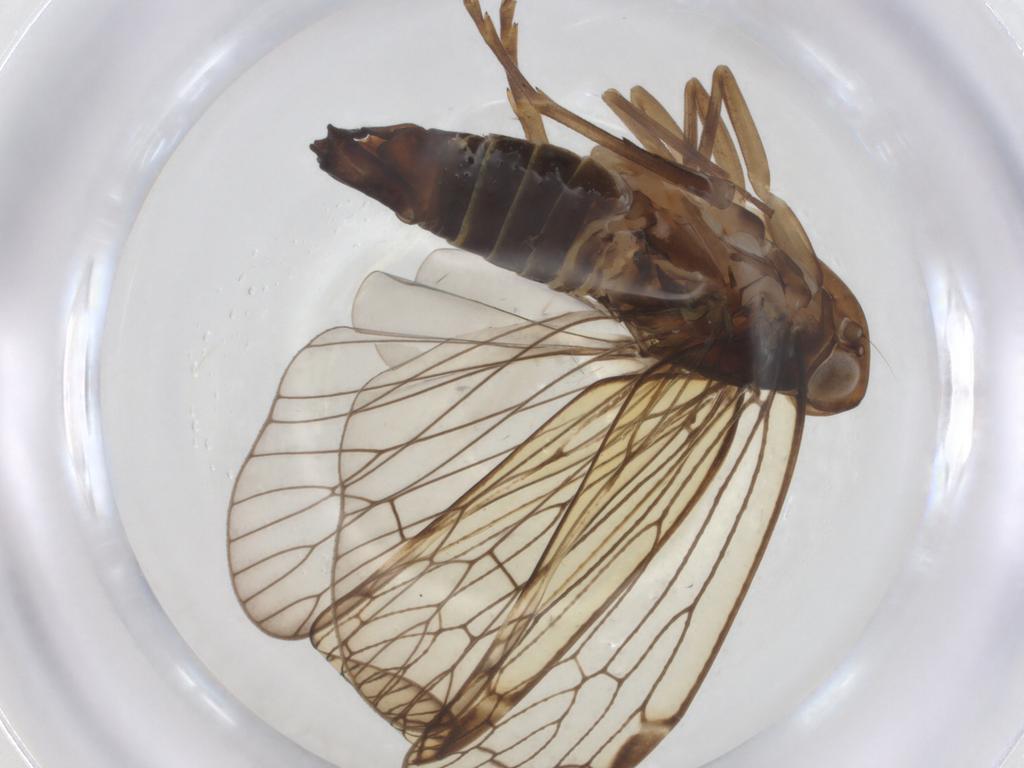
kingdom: Animalia
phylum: Arthropoda
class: Insecta
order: Hemiptera
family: Cixiidae
